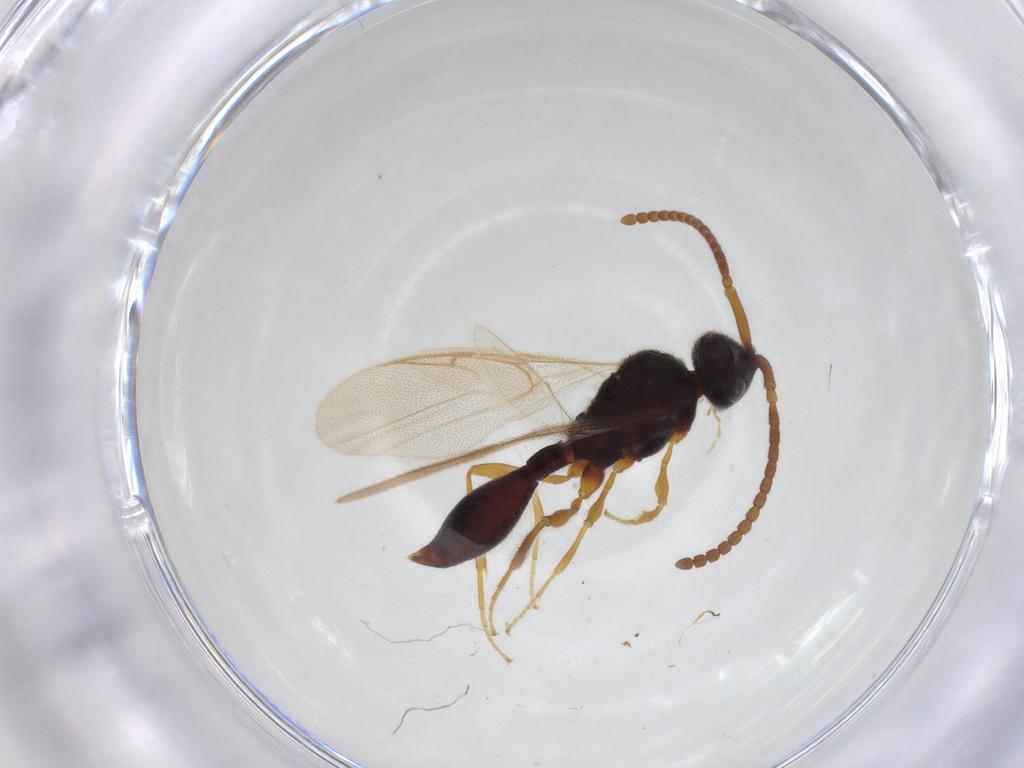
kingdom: Animalia
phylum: Arthropoda
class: Insecta
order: Hymenoptera
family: Diapriidae
